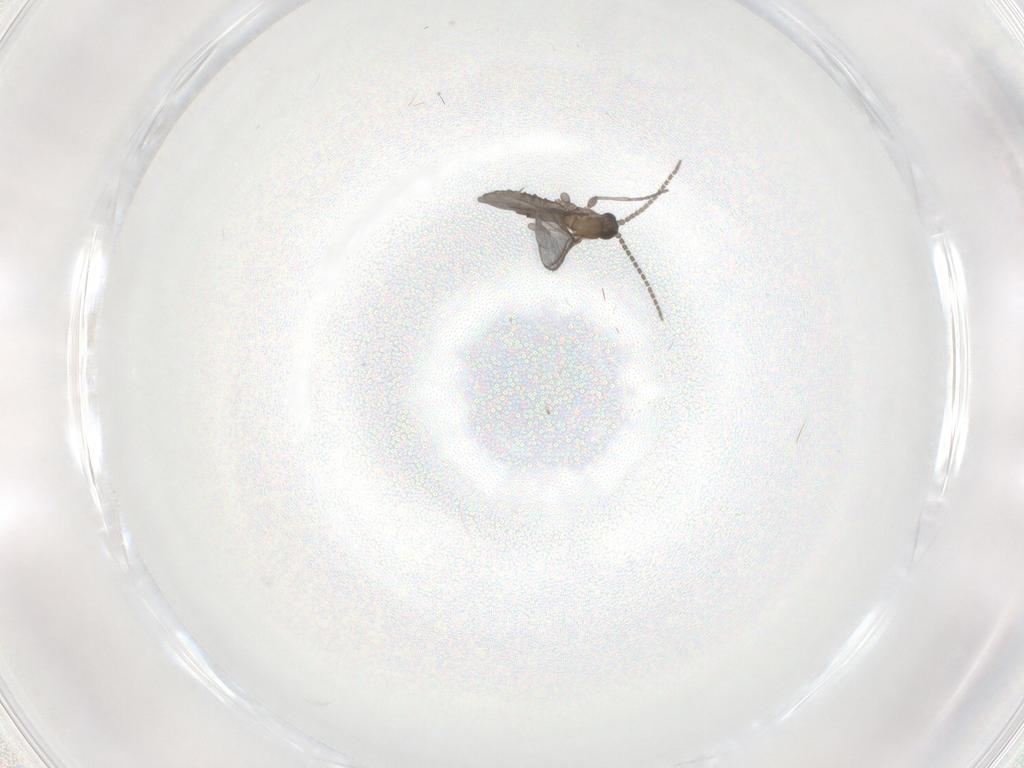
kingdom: Animalia
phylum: Arthropoda
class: Insecta
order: Diptera
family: Sciaridae
